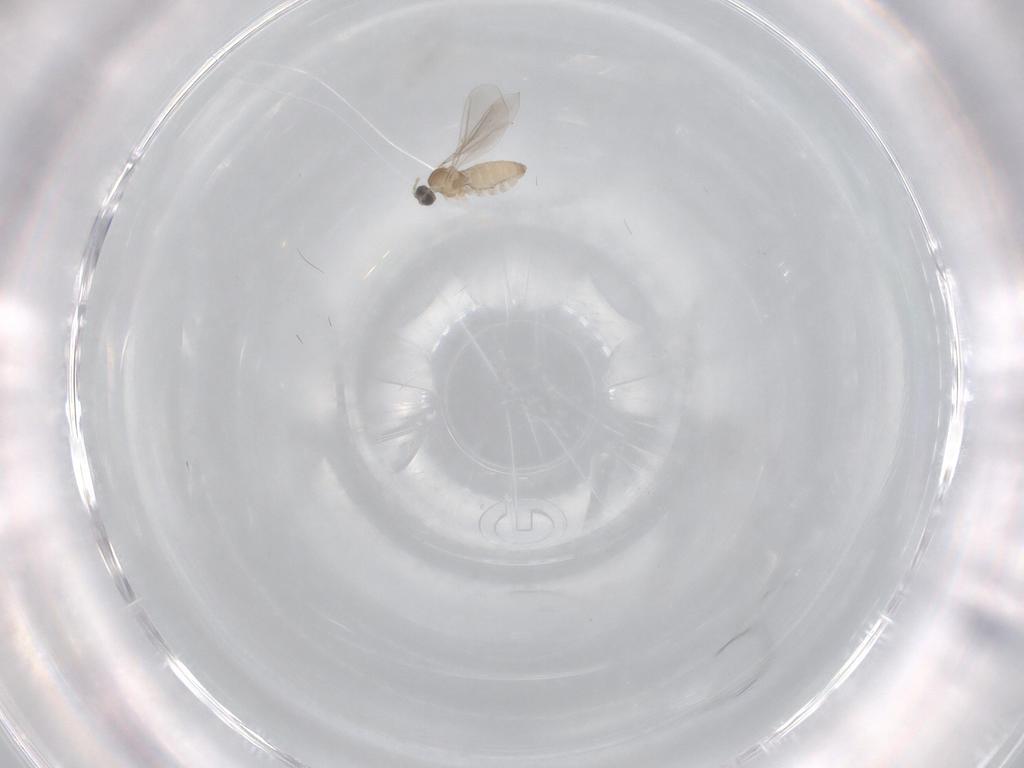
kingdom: Animalia
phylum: Arthropoda
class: Insecta
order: Diptera
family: Cecidomyiidae
